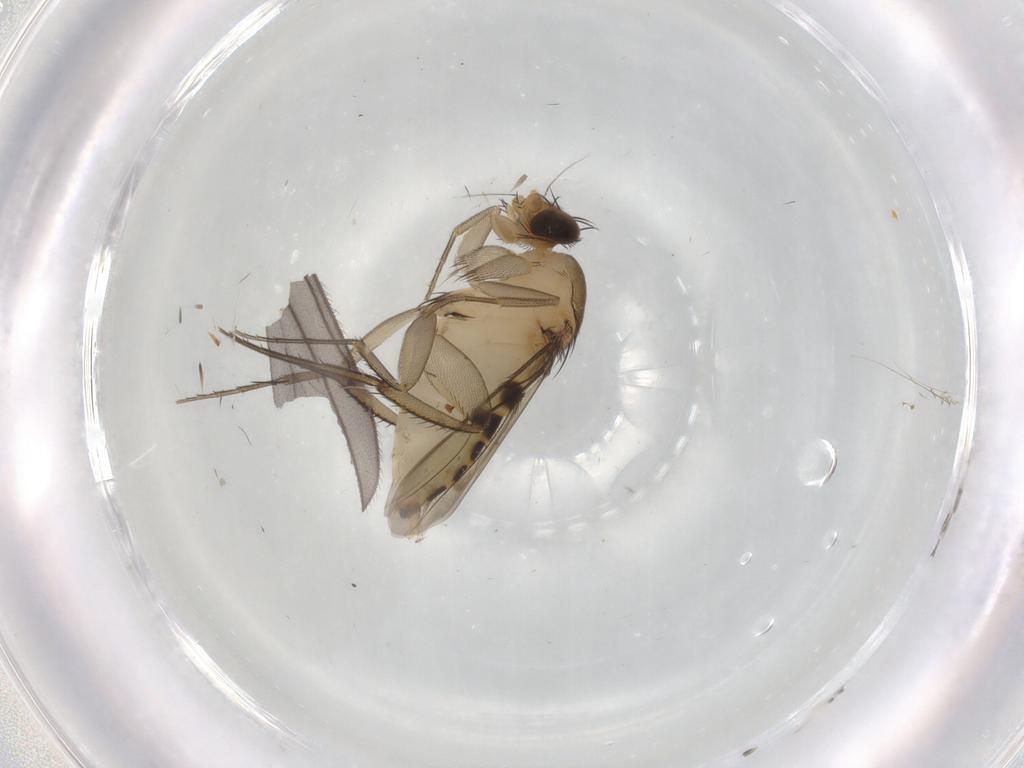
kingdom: Animalia
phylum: Arthropoda
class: Insecta
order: Diptera
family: Cecidomyiidae
